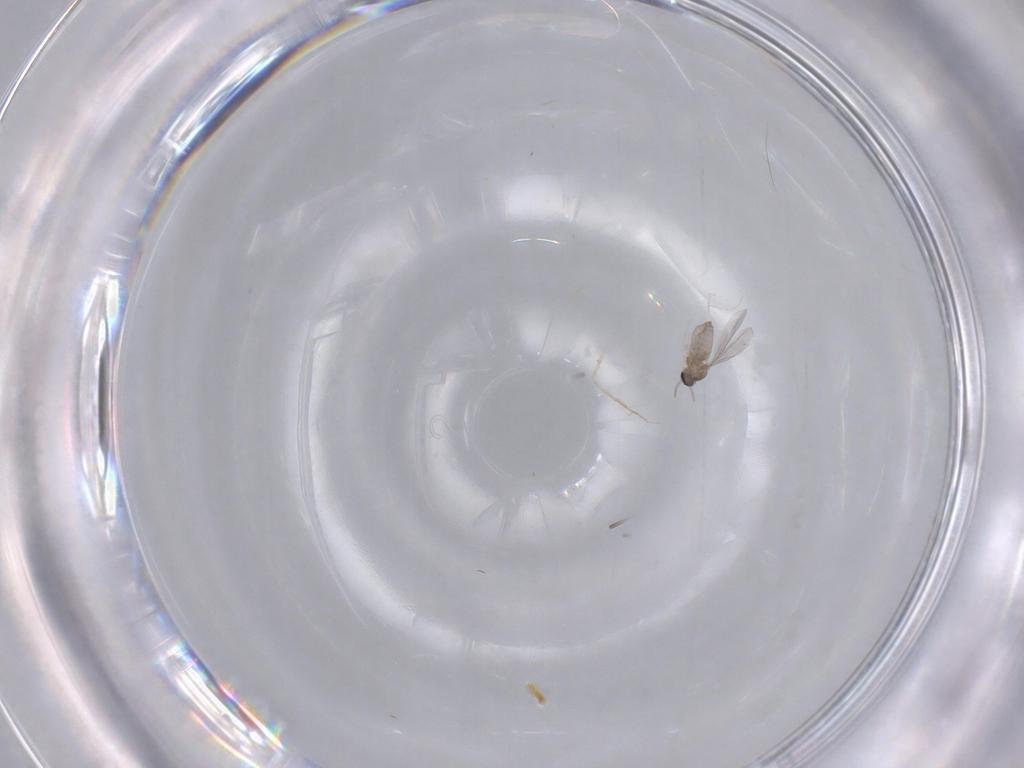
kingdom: Animalia
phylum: Arthropoda
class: Insecta
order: Diptera
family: Cecidomyiidae
